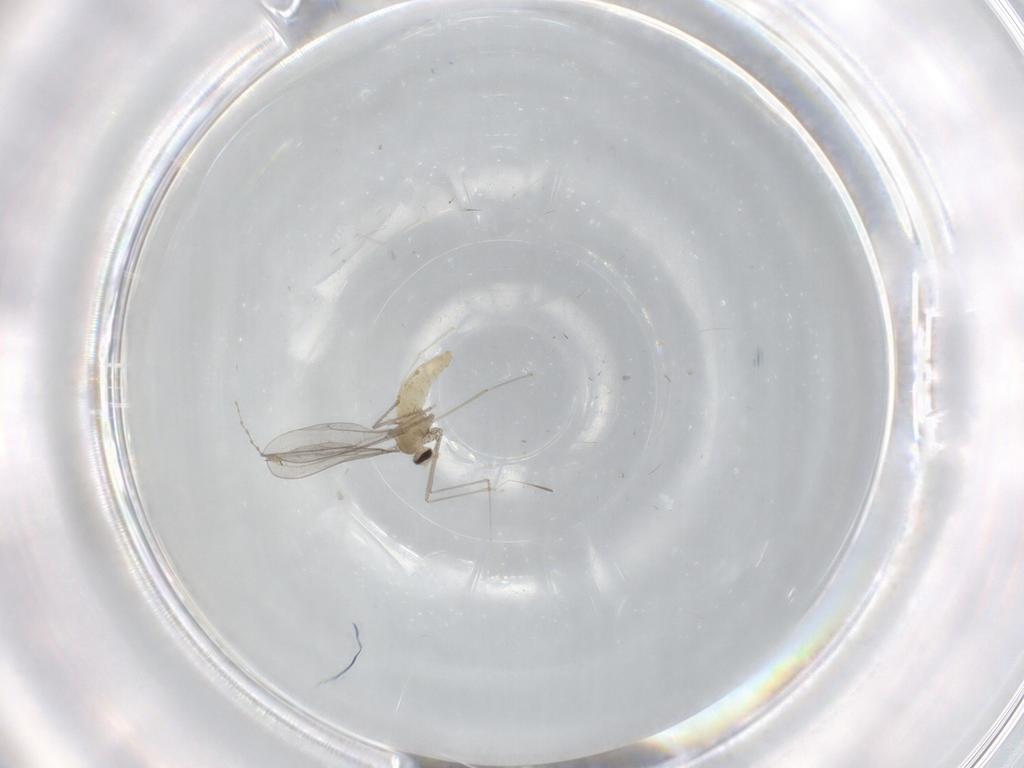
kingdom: Animalia
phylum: Arthropoda
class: Insecta
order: Diptera
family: Cecidomyiidae
